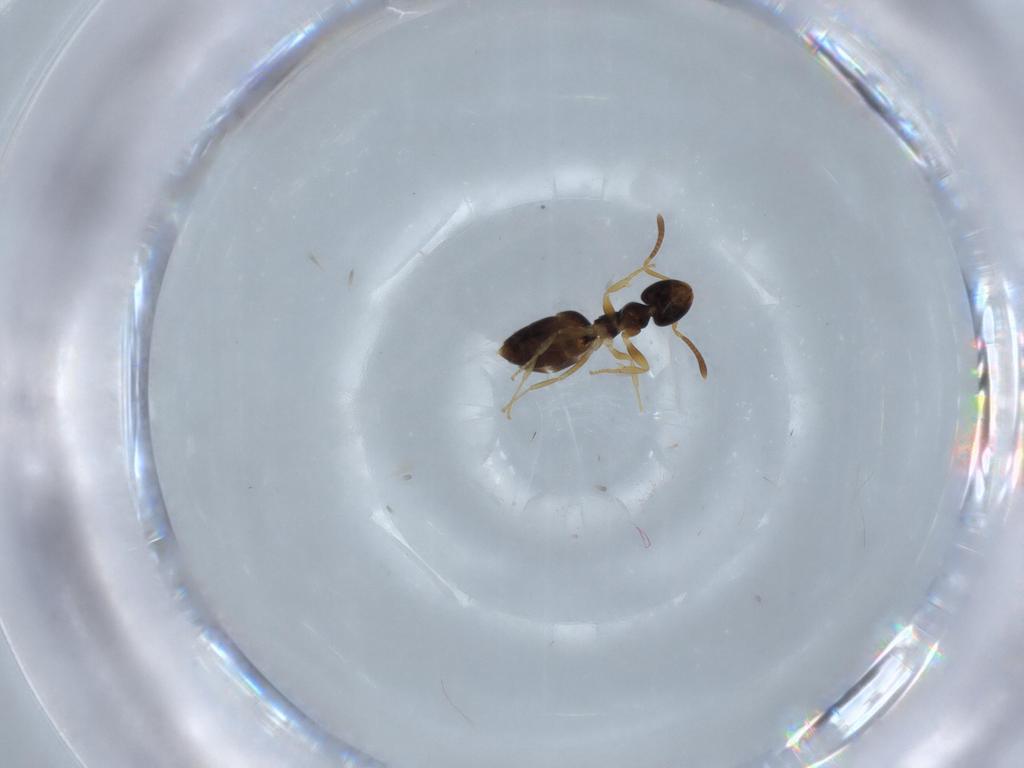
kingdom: Animalia
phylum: Arthropoda
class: Insecta
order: Hymenoptera
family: Formicidae
